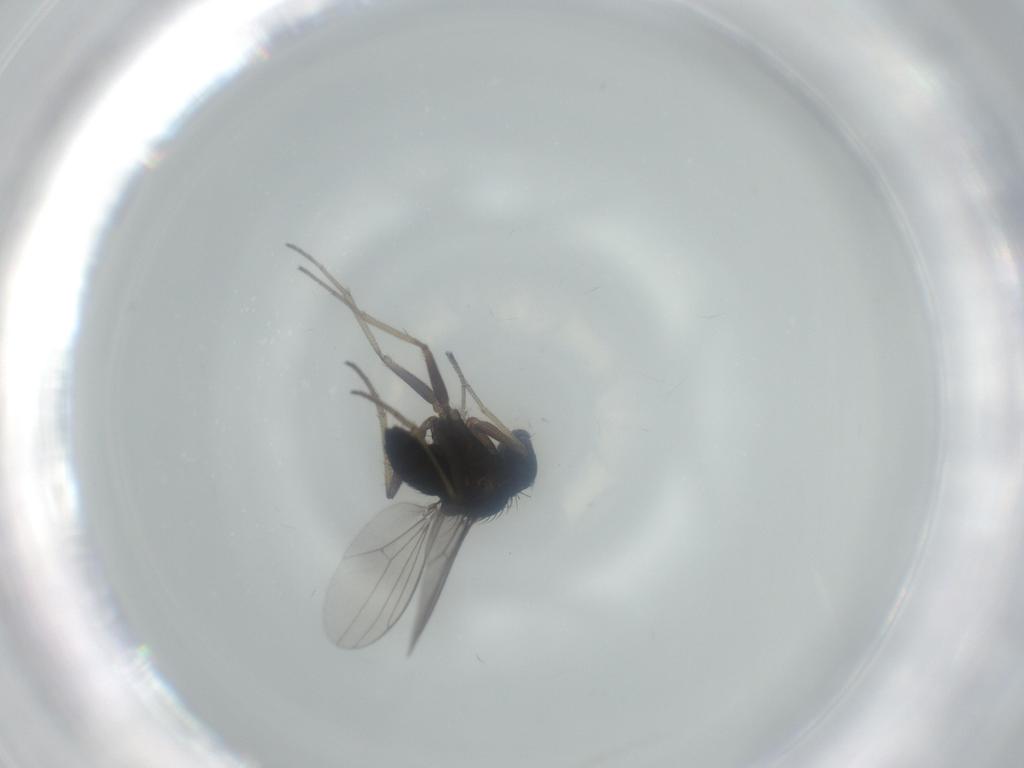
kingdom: Animalia
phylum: Arthropoda
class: Insecta
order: Diptera
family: Dolichopodidae
